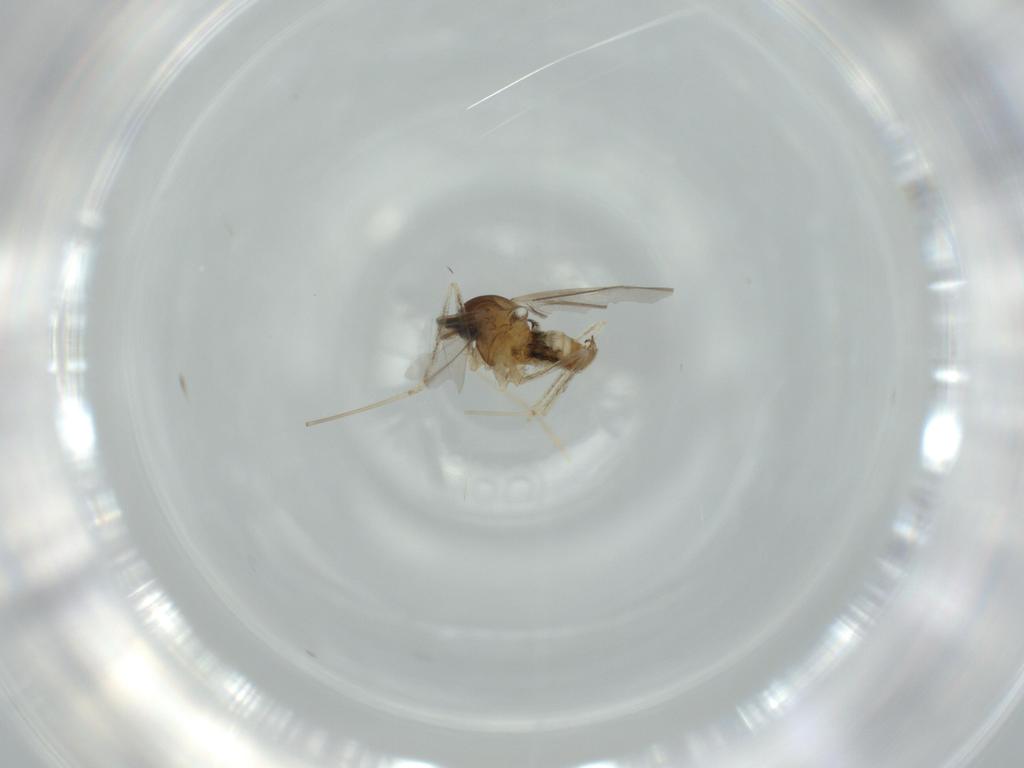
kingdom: Animalia
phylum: Arthropoda
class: Insecta
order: Diptera
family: Cecidomyiidae
